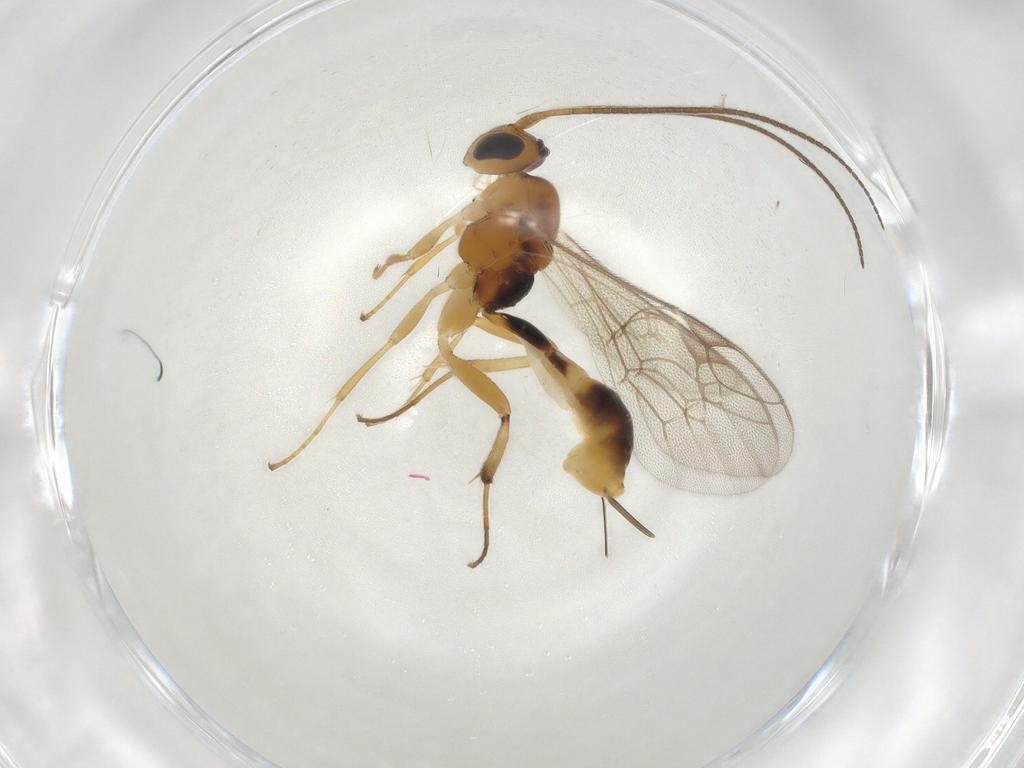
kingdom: Animalia
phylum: Arthropoda
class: Insecta
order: Hymenoptera
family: Ichneumonidae
